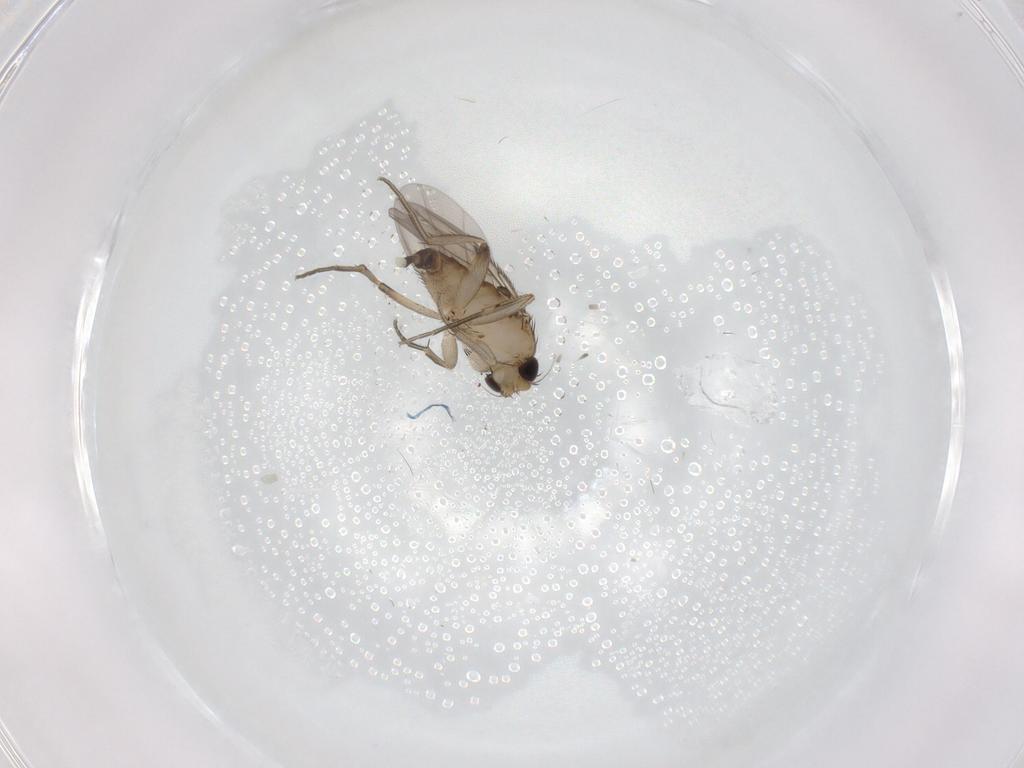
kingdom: Animalia
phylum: Arthropoda
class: Insecta
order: Diptera
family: Phoridae
